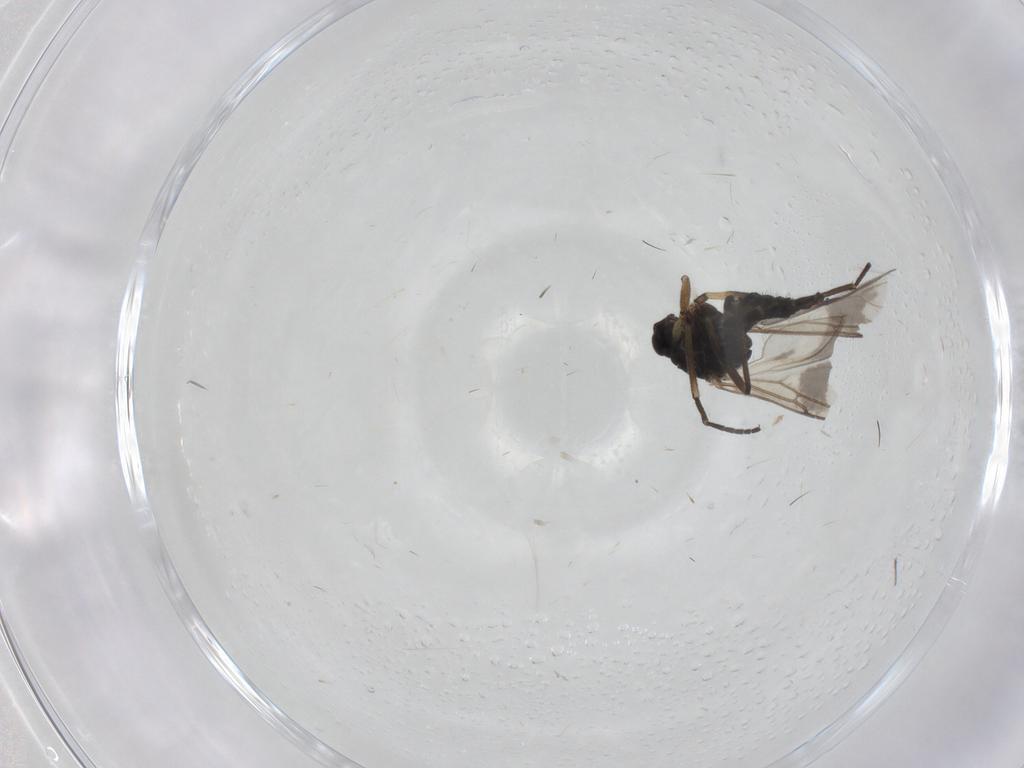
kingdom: Animalia
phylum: Arthropoda
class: Insecta
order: Diptera
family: Sciaridae
